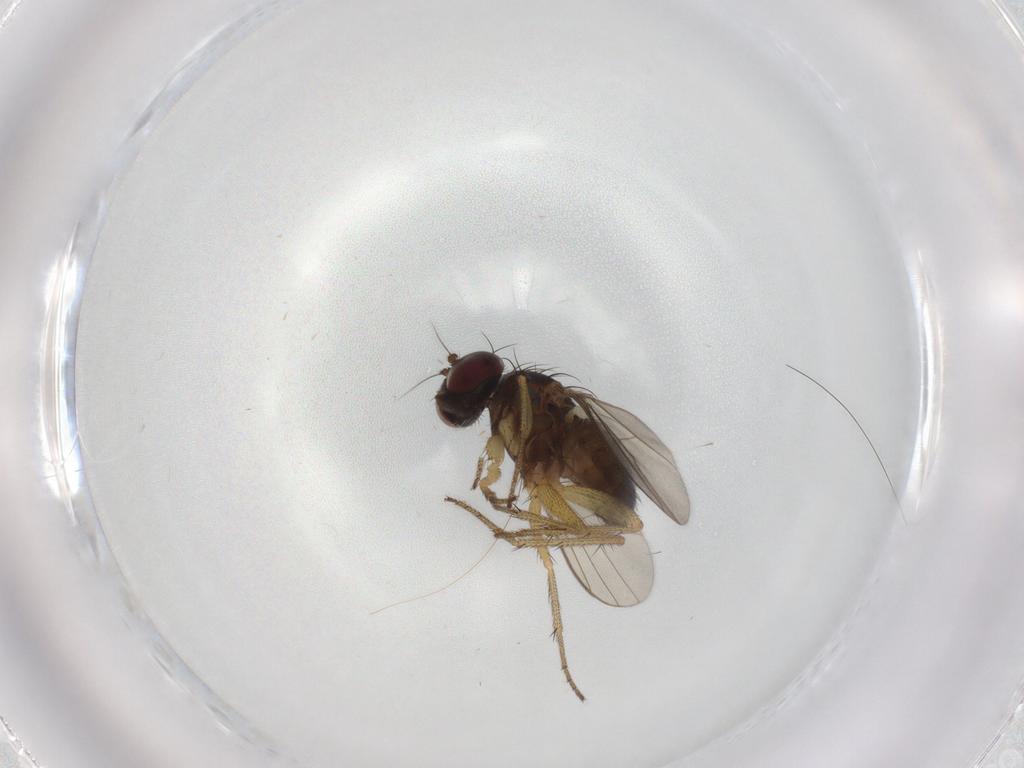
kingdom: Animalia
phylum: Arthropoda
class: Insecta
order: Diptera
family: Dolichopodidae
